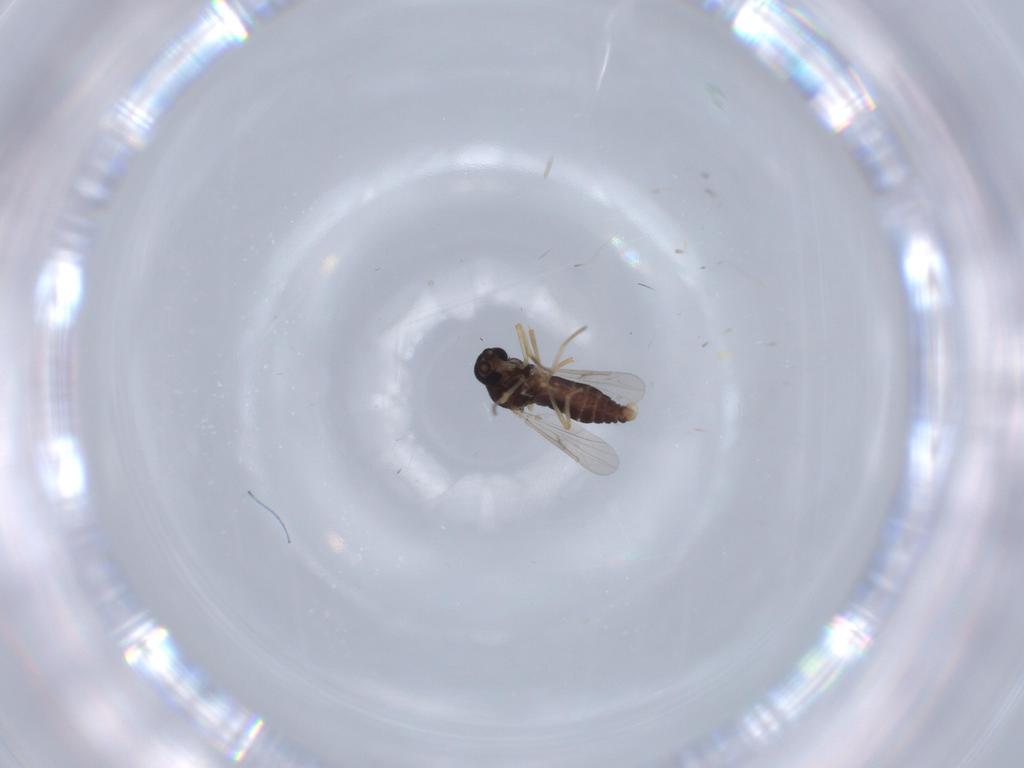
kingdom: Animalia
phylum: Arthropoda
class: Insecta
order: Diptera
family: Ceratopogonidae
